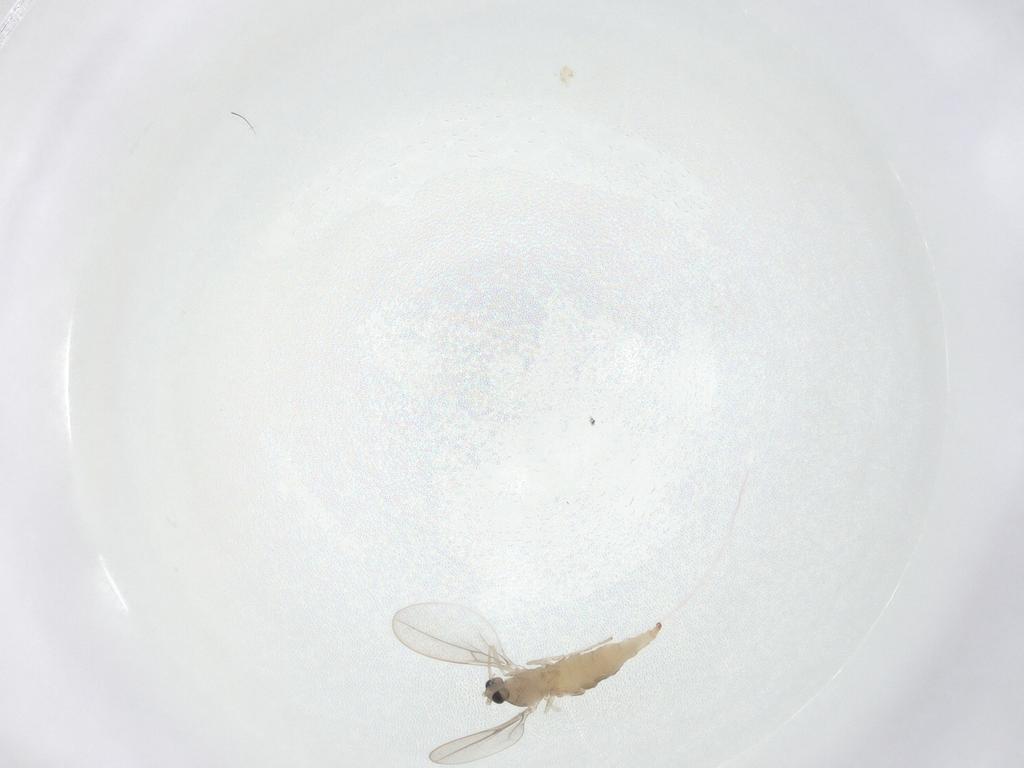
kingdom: Animalia
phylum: Arthropoda
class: Insecta
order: Diptera
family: Cecidomyiidae
